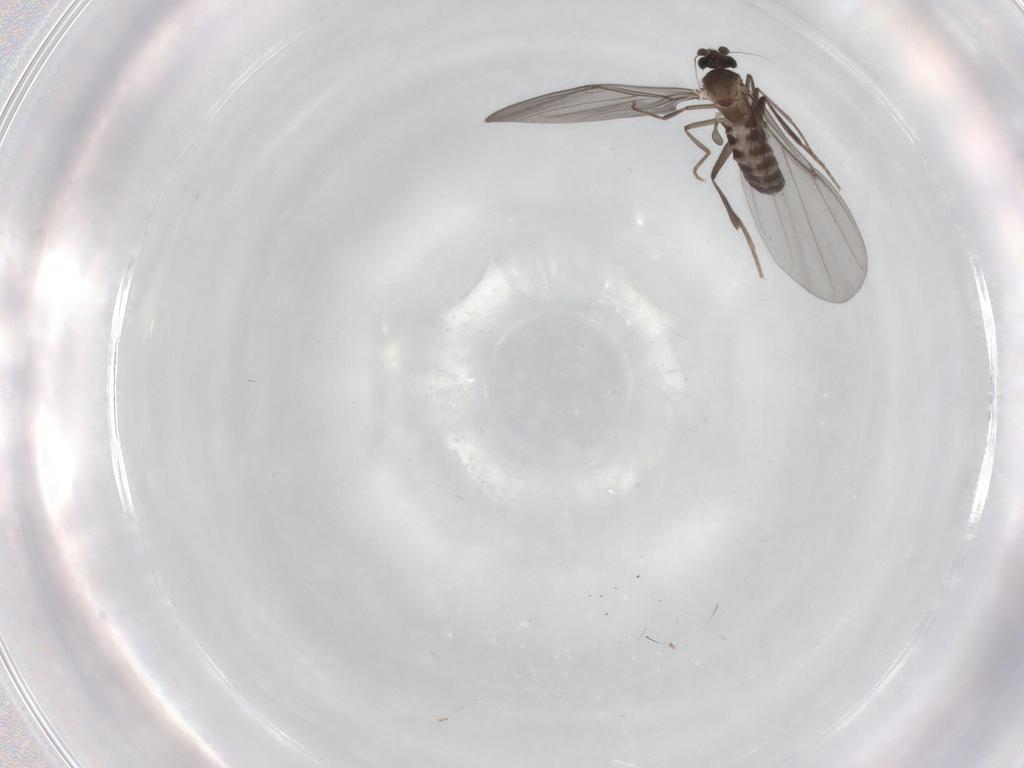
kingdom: Animalia
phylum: Arthropoda
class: Insecta
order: Diptera
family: Phoridae
